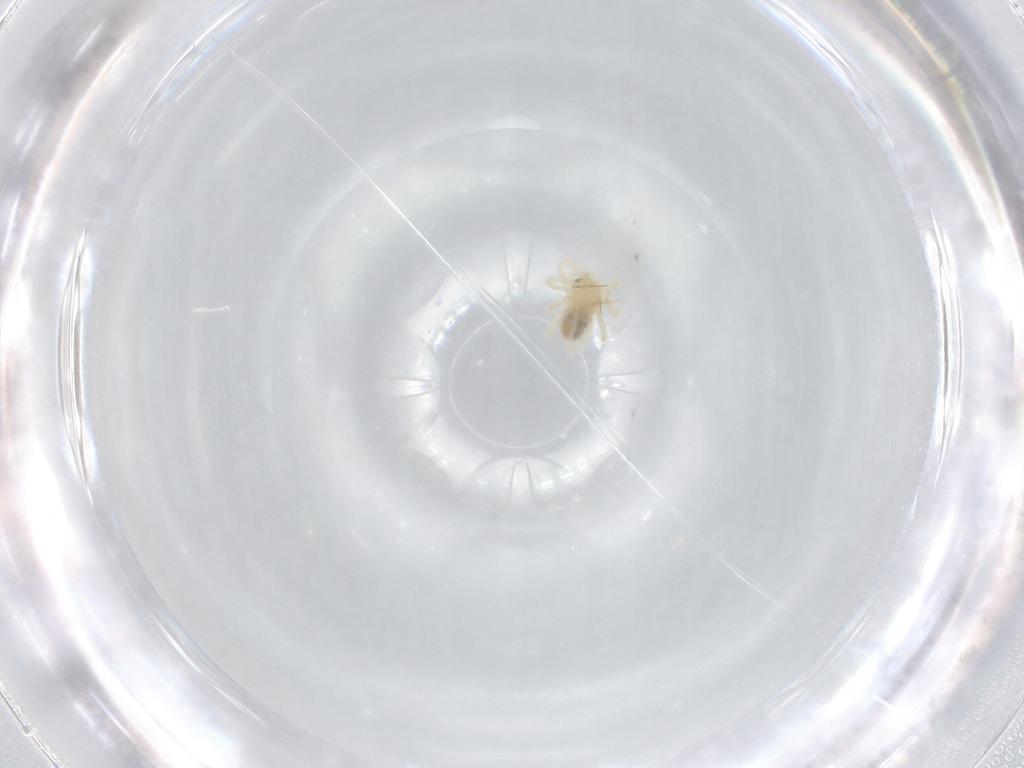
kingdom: Animalia
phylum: Arthropoda
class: Arachnida
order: Trombidiformes
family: Anystidae
